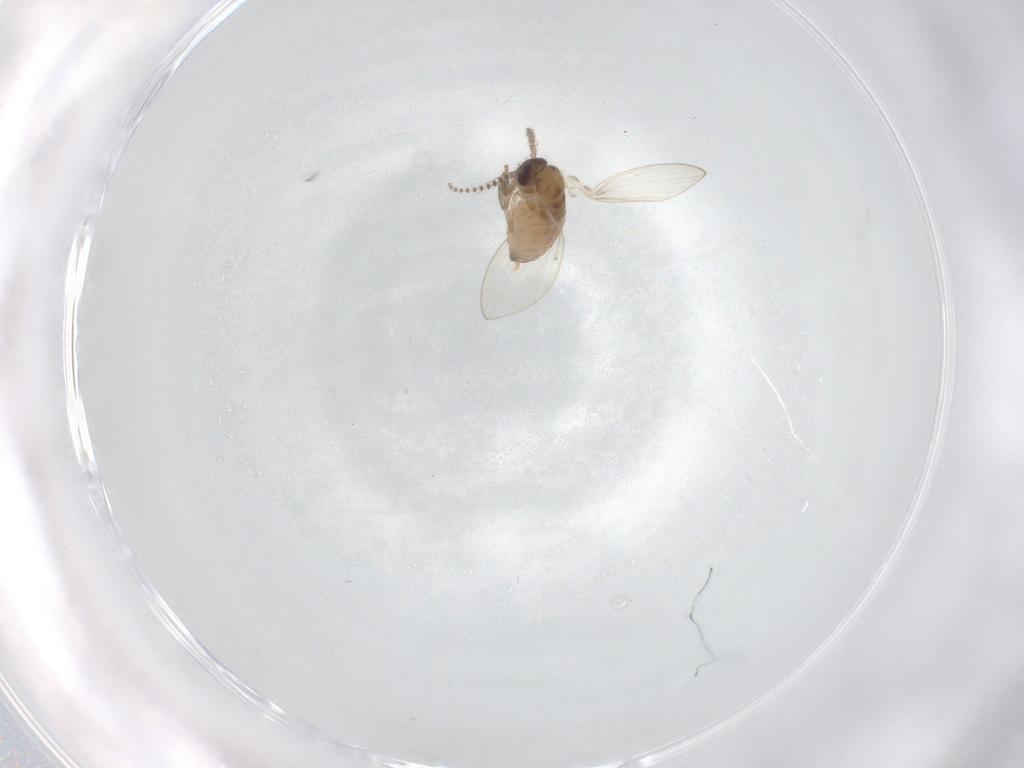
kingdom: Animalia
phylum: Arthropoda
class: Insecta
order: Diptera
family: Psychodidae
